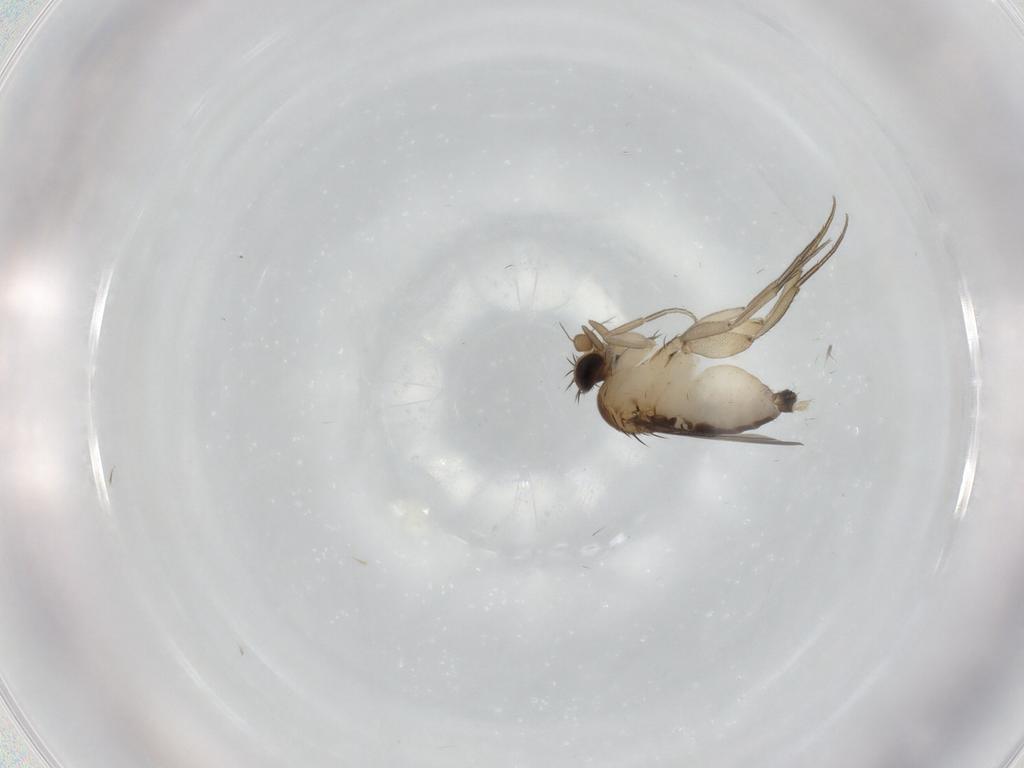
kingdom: Animalia
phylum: Arthropoda
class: Insecta
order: Diptera
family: Phoridae
